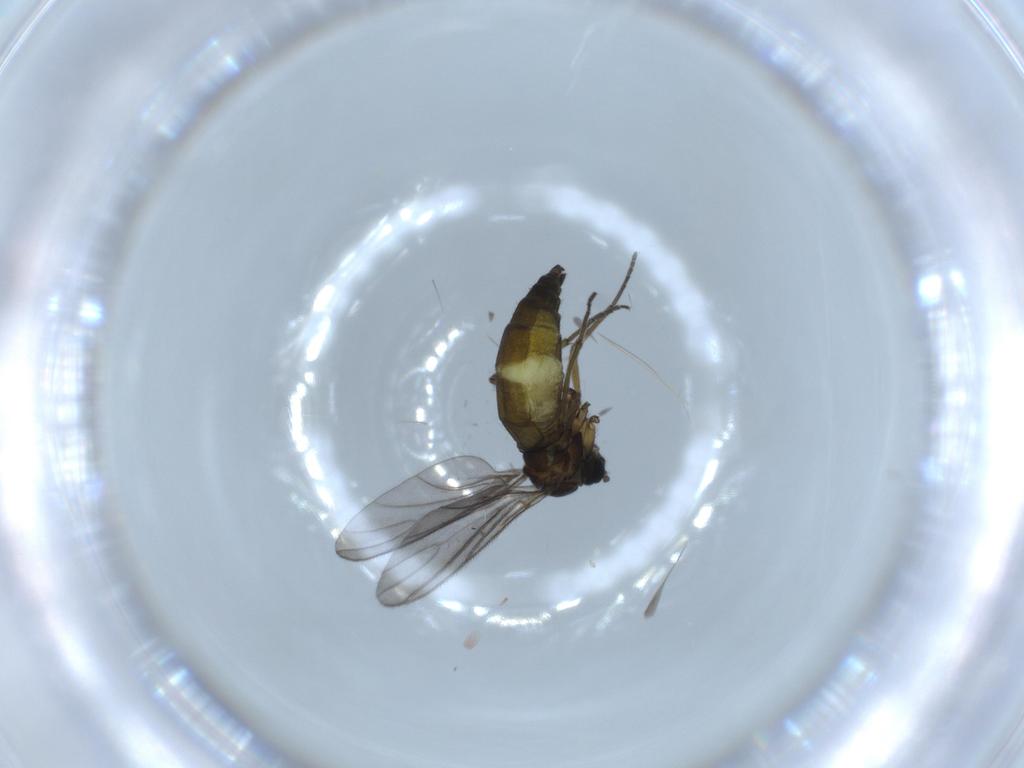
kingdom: Animalia
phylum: Arthropoda
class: Insecta
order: Diptera
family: Sciaridae
